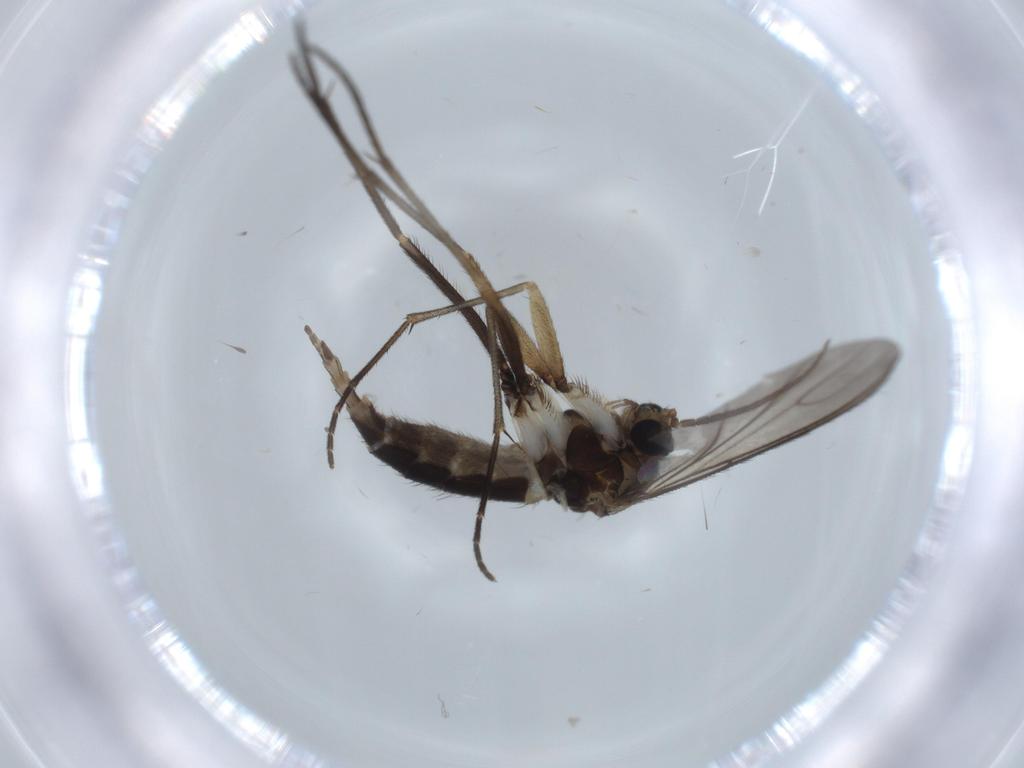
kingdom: Animalia
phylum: Arthropoda
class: Insecta
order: Diptera
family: Sciaridae
